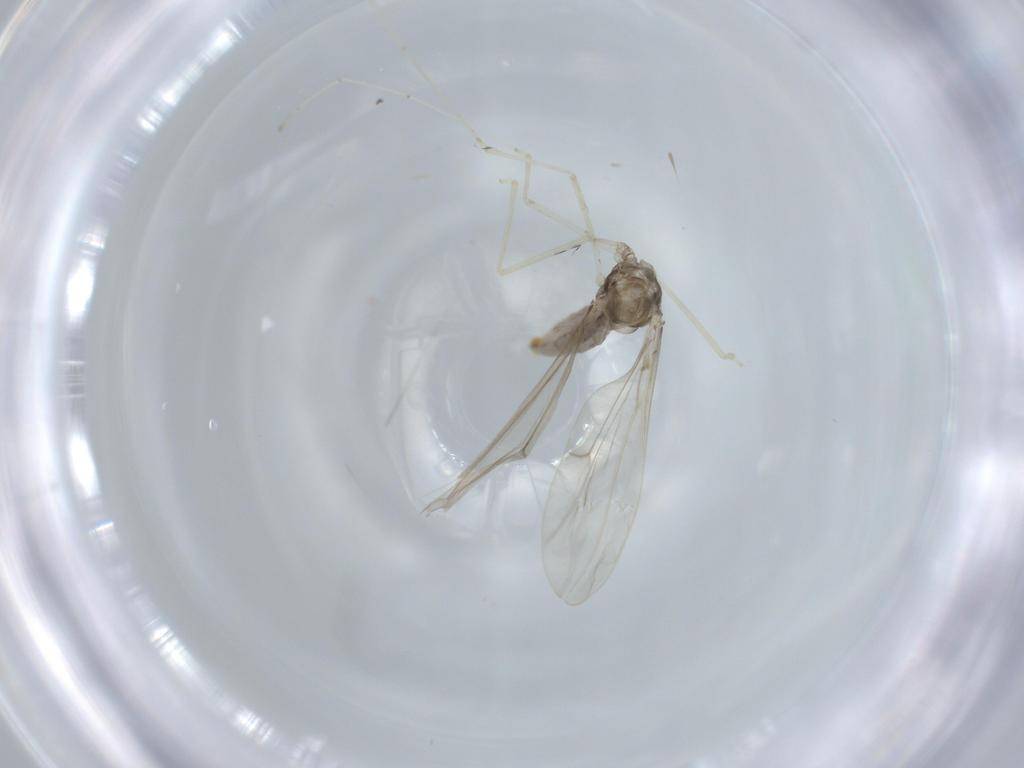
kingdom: Animalia
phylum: Arthropoda
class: Insecta
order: Diptera
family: Cecidomyiidae
